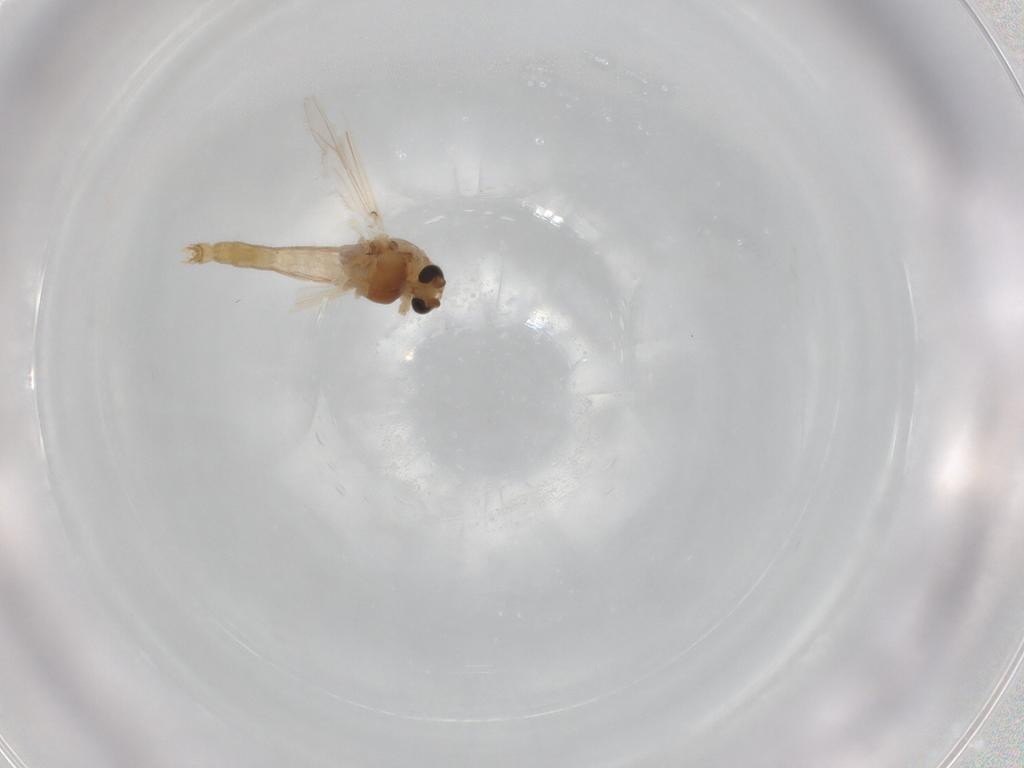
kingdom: Animalia
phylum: Arthropoda
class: Insecta
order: Diptera
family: Chironomidae
